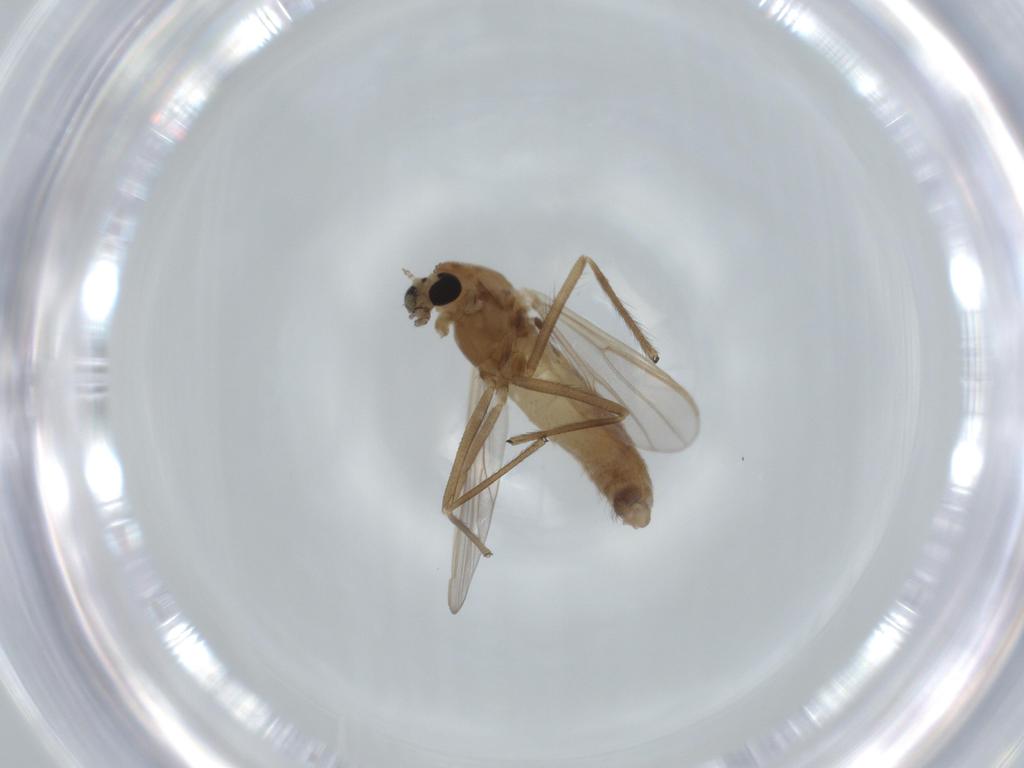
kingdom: Animalia
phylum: Arthropoda
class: Insecta
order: Diptera
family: Chironomidae
